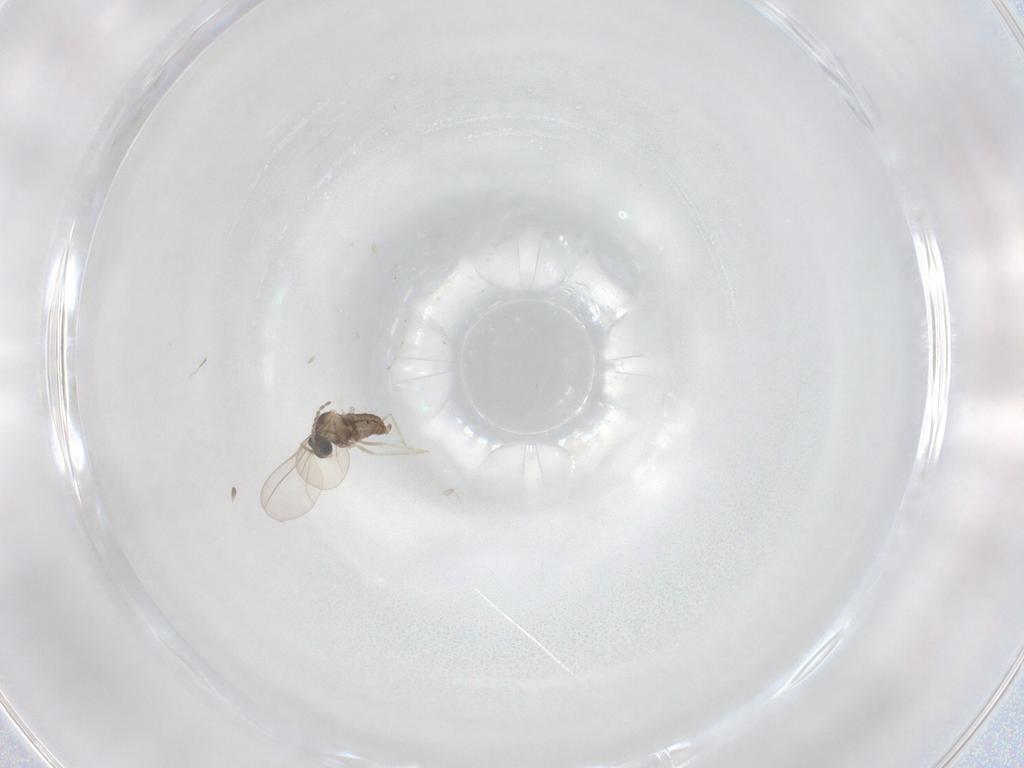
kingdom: Animalia
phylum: Arthropoda
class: Insecta
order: Diptera
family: Cecidomyiidae
